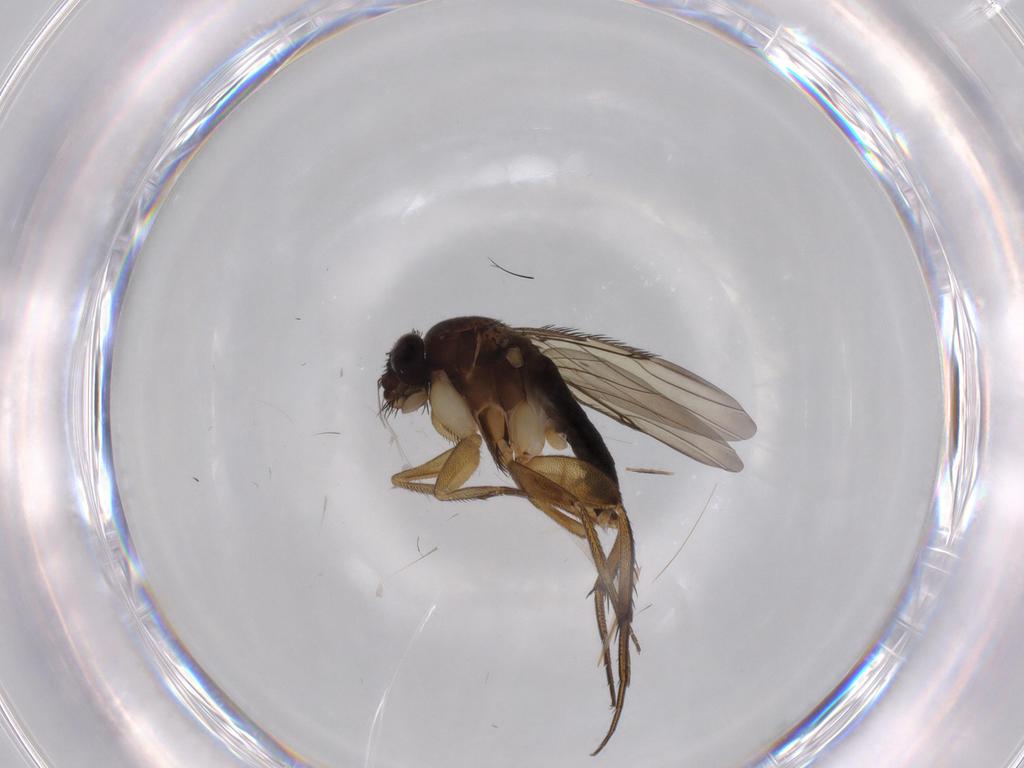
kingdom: Animalia
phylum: Arthropoda
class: Insecta
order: Diptera
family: Phoridae
